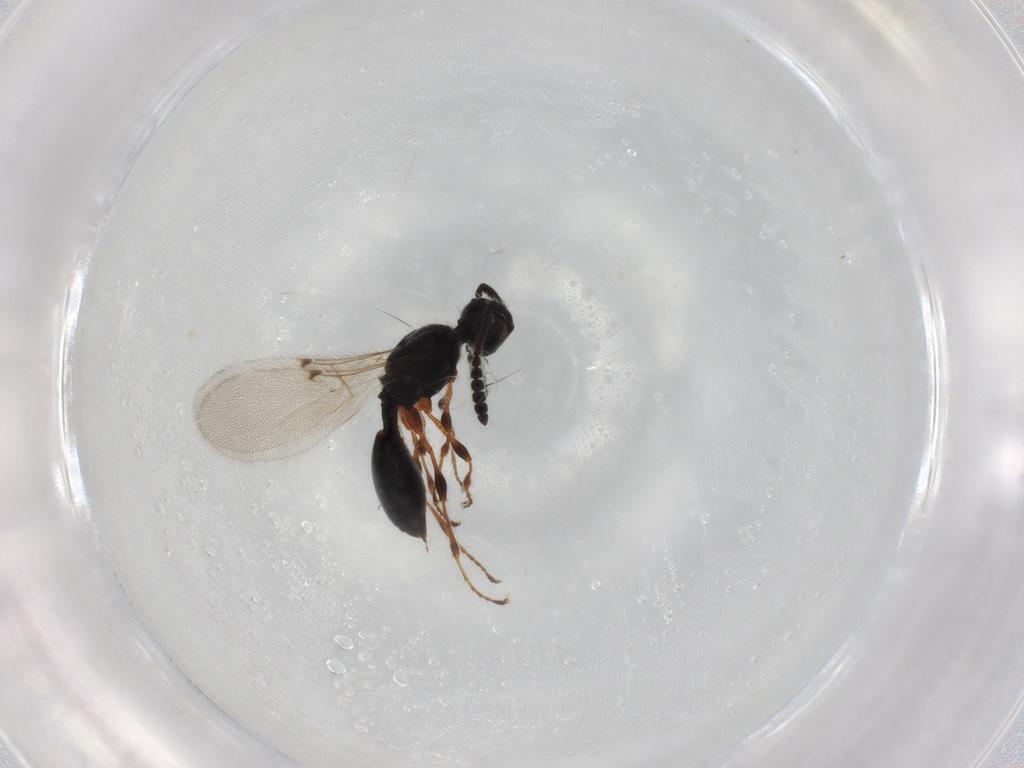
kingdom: Animalia
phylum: Arthropoda
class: Insecta
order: Hymenoptera
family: Diapriidae
